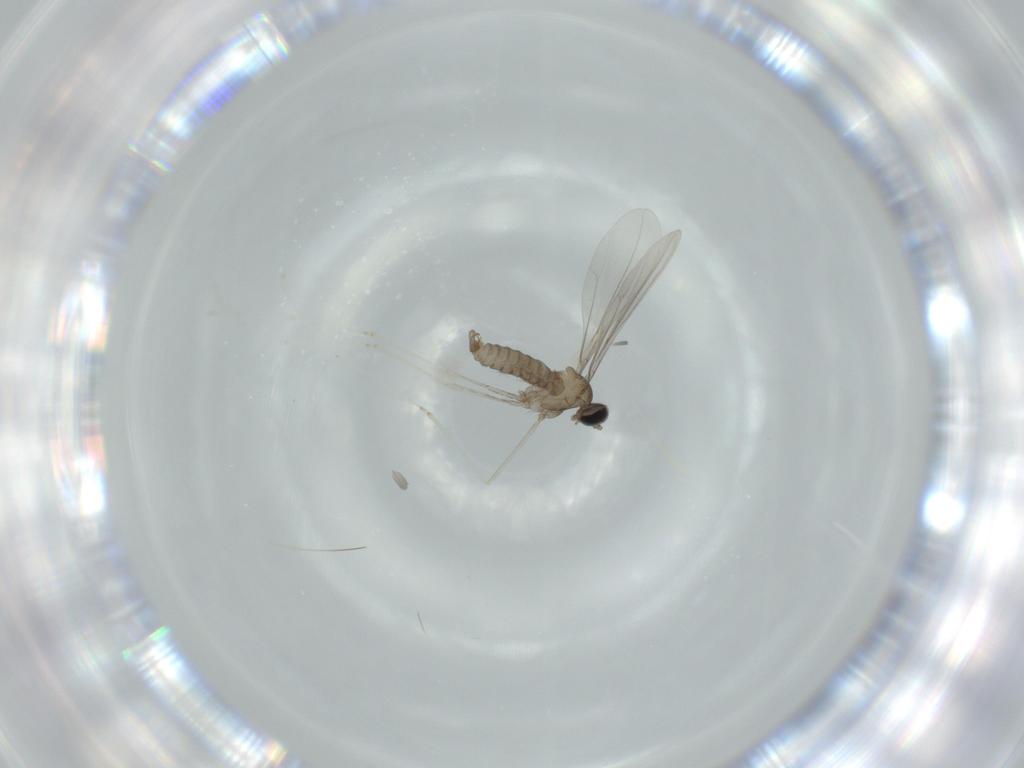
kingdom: Animalia
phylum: Arthropoda
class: Insecta
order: Diptera
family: Cecidomyiidae
